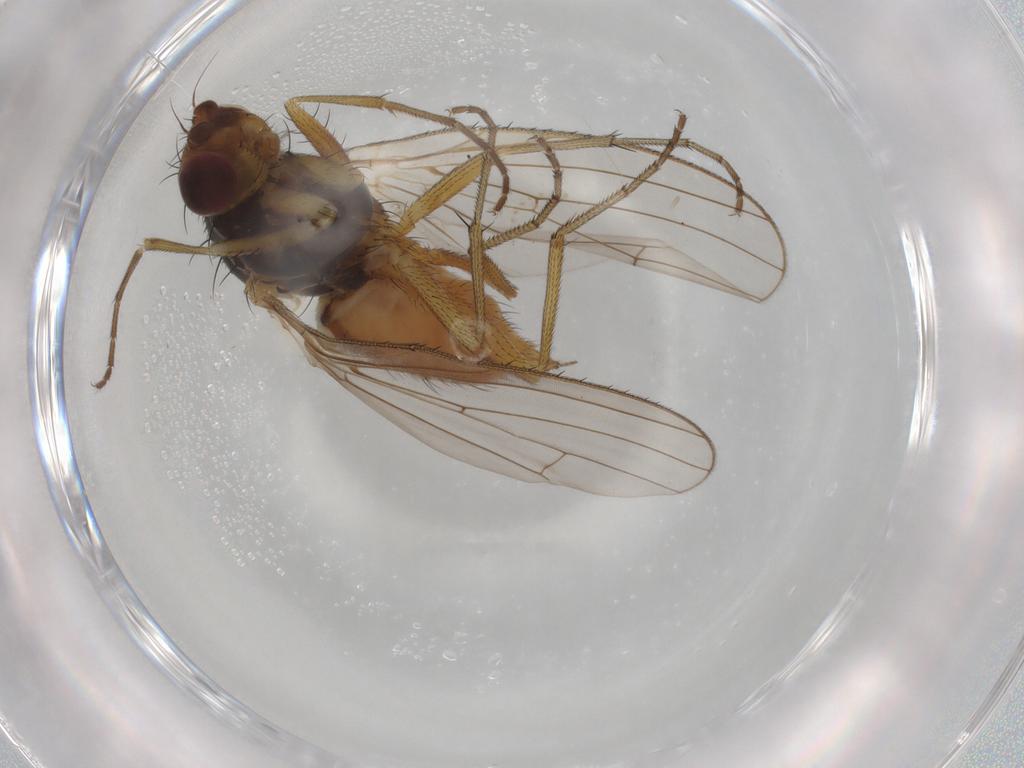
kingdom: Animalia
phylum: Arthropoda
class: Insecta
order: Diptera
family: Heleomyzidae
